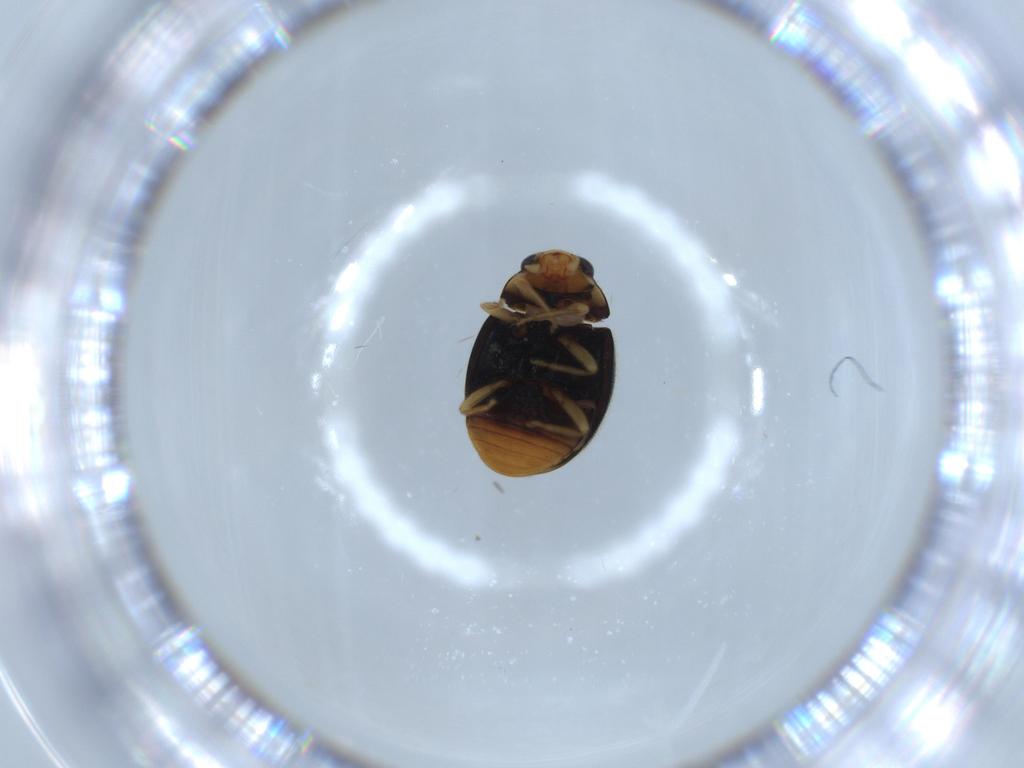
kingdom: Animalia
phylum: Arthropoda
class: Insecta
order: Coleoptera
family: Curculionidae
